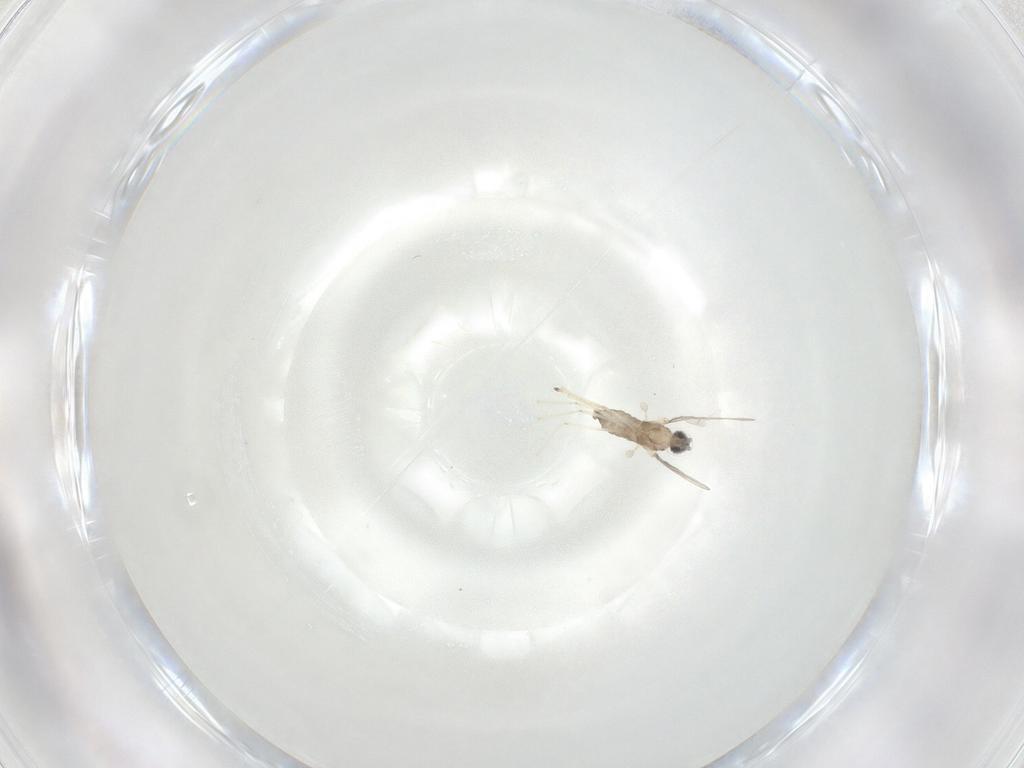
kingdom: Animalia
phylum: Arthropoda
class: Insecta
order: Diptera
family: Cecidomyiidae
